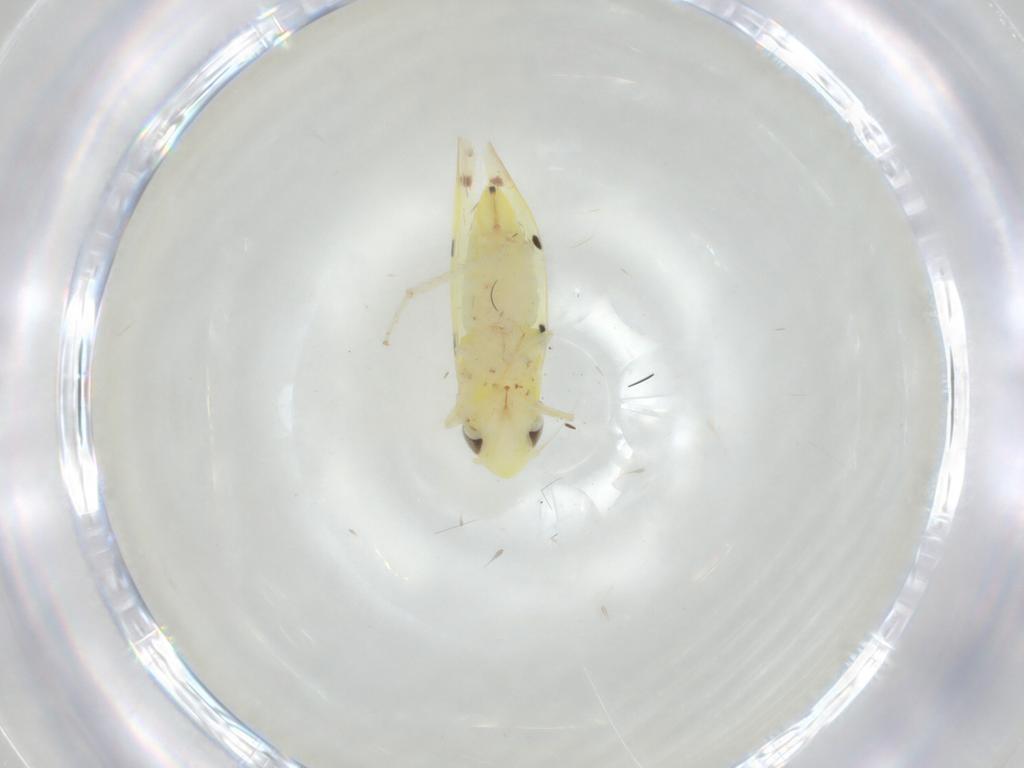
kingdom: Animalia
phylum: Arthropoda
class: Insecta
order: Hemiptera
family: Cicadellidae
